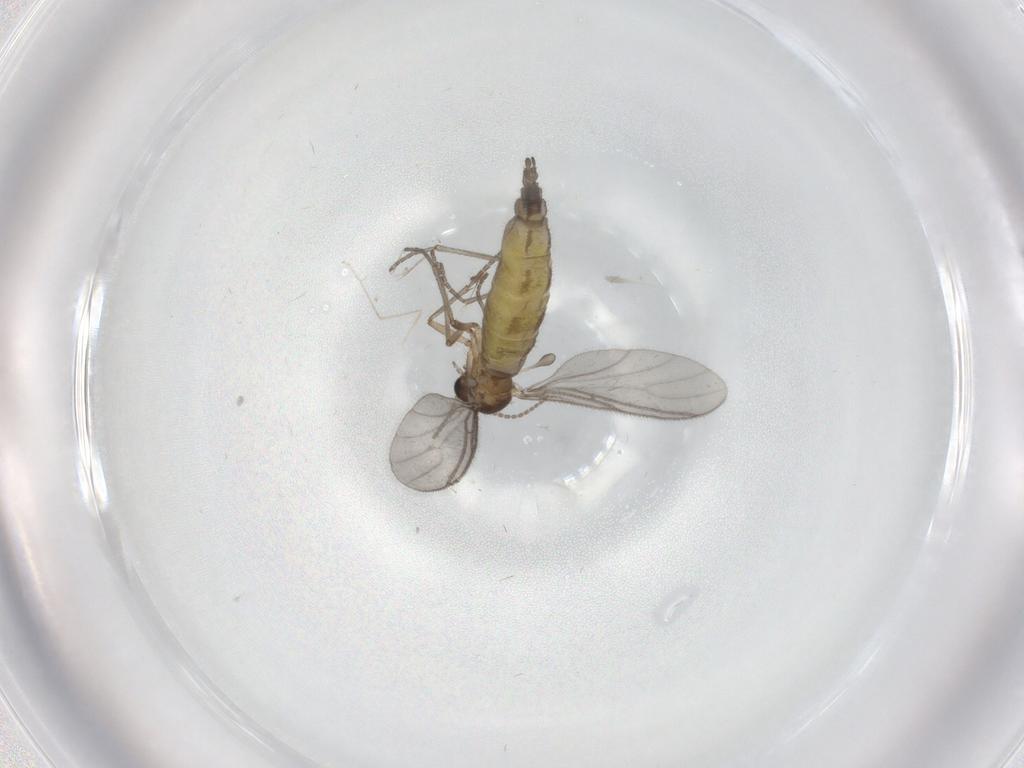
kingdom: Animalia
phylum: Arthropoda
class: Insecta
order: Diptera
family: Sciaridae
